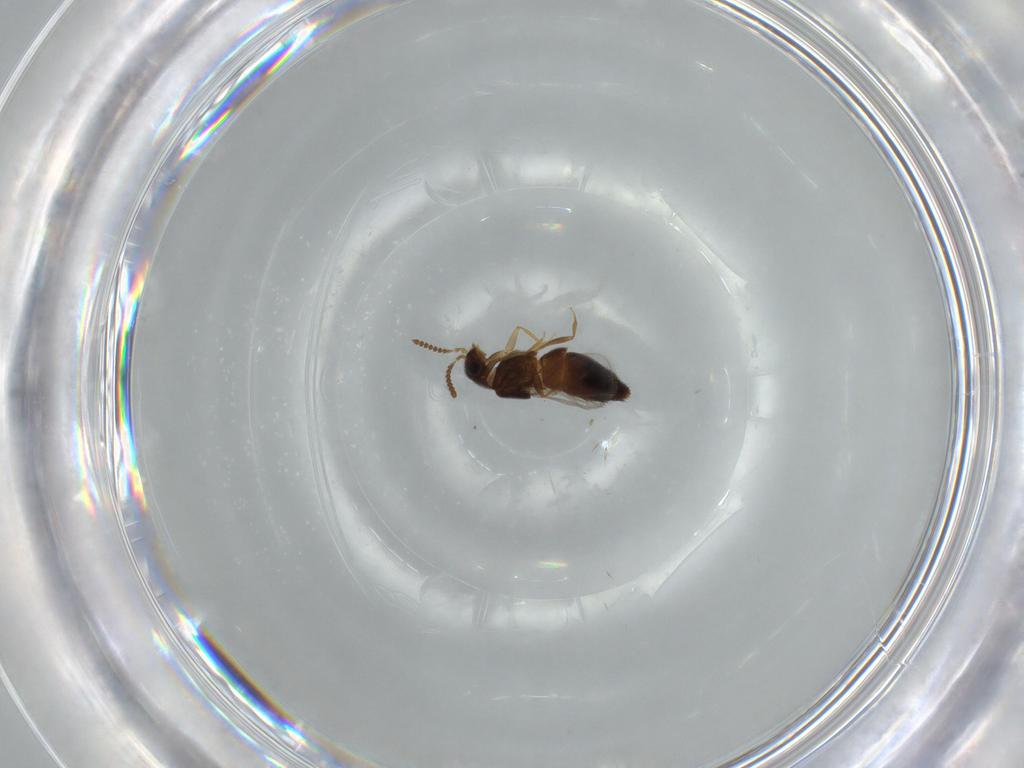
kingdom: Animalia
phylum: Arthropoda
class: Insecta
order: Coleoptera
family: Staphylinidae
